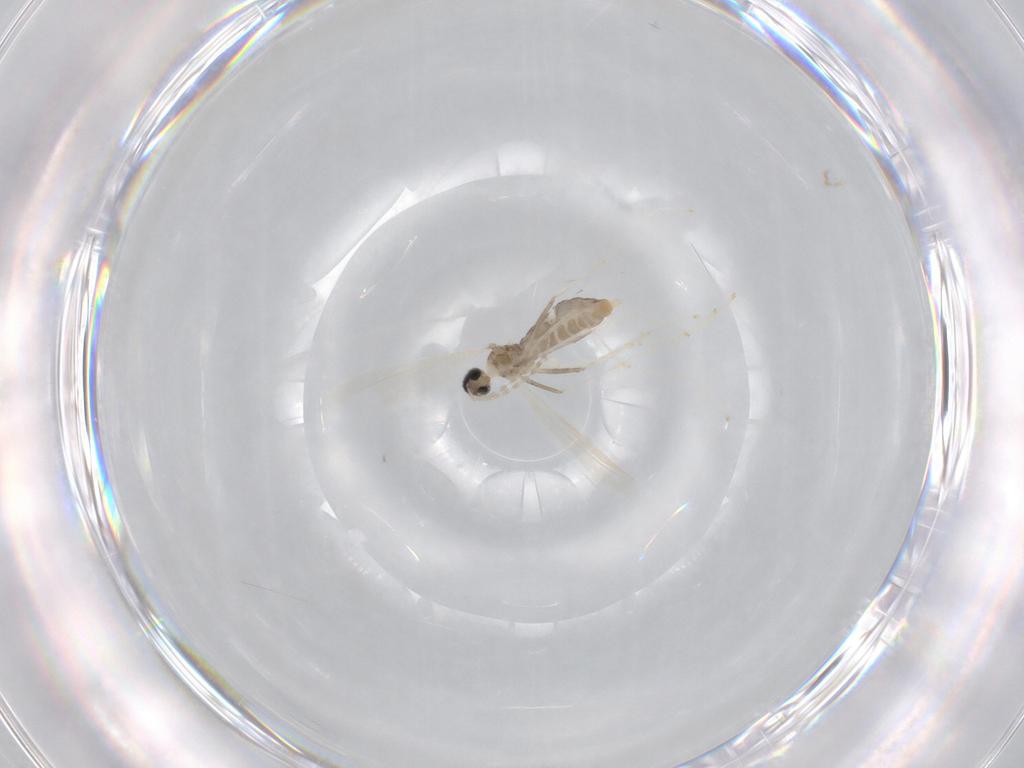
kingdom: Animalia
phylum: Arthropoda
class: Insecta
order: Diptera
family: Cecidomyiidae
